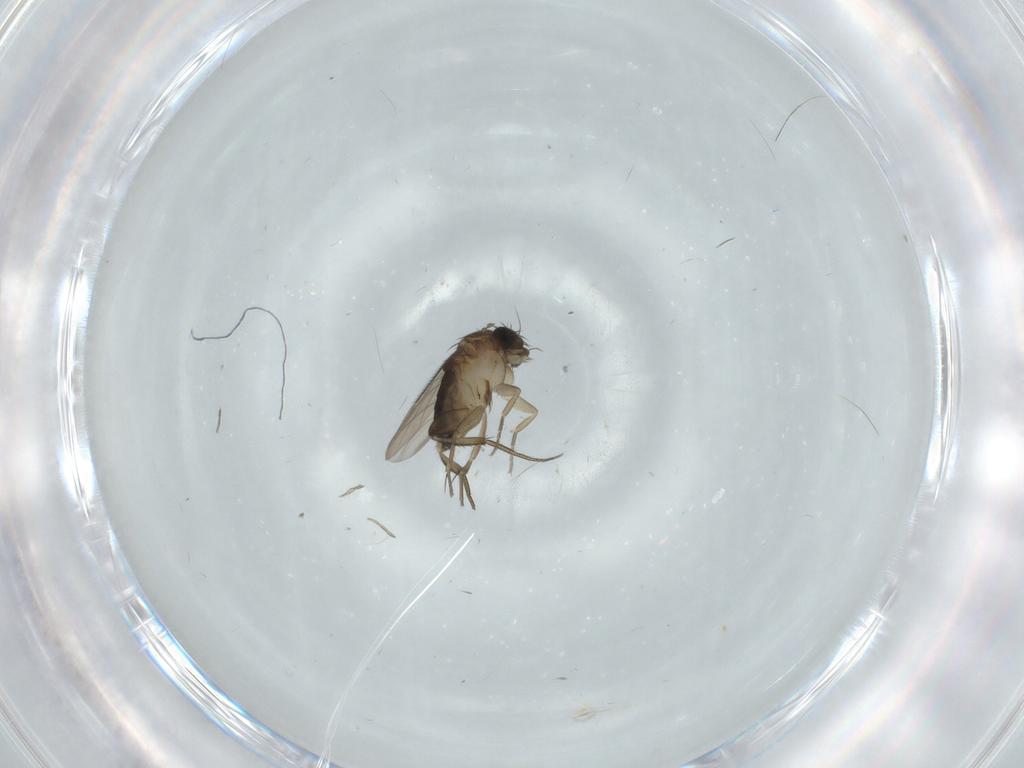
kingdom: Animalia
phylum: Arthropoda
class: Insecta
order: Diptera
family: Phoridae
